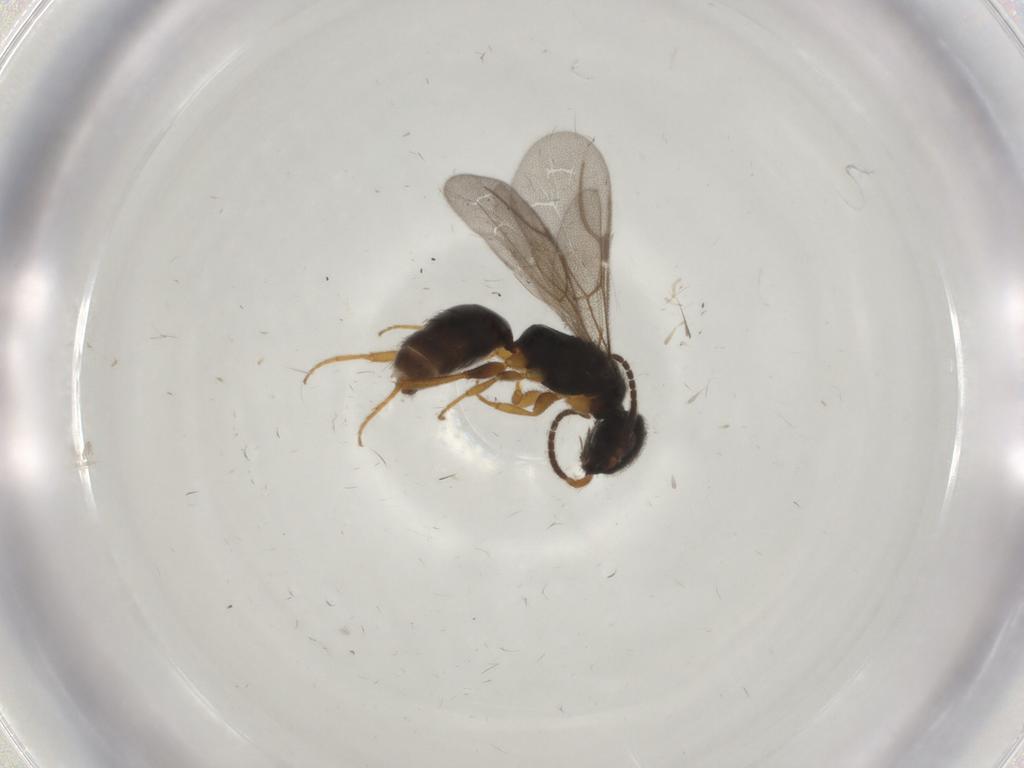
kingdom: Animalia
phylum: Arthropoda
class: Insecta
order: Hymenoptera
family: Bethylidae
